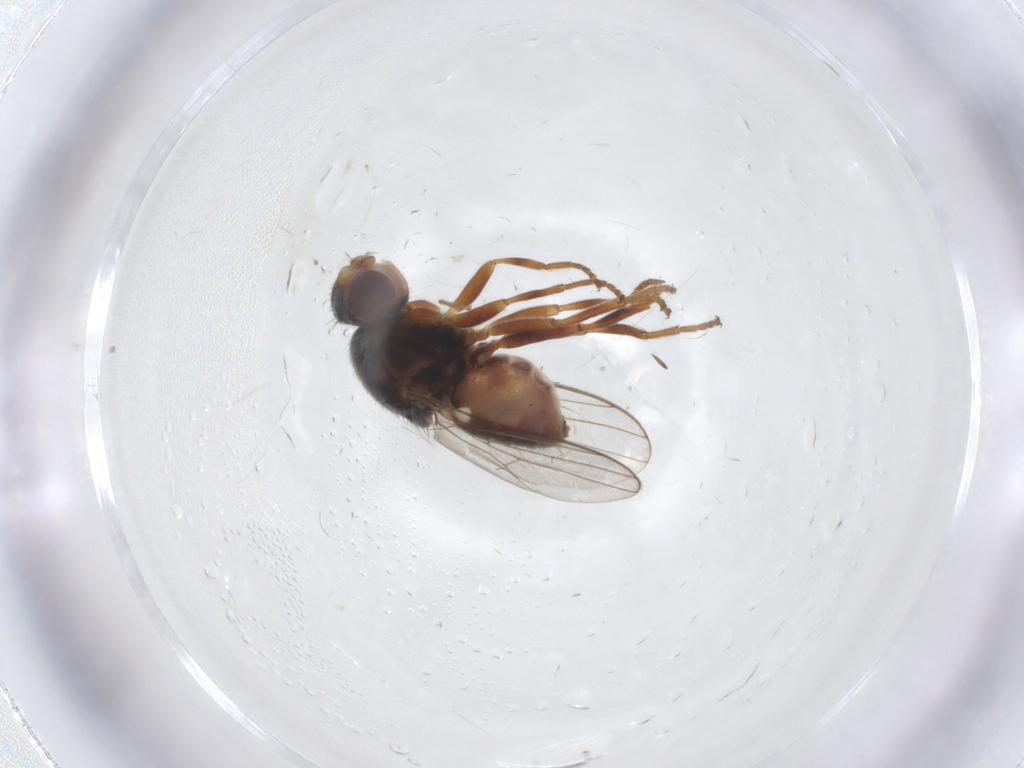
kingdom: Animalia
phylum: Arthropoda
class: Insecta
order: Diptera
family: Chloropidae
